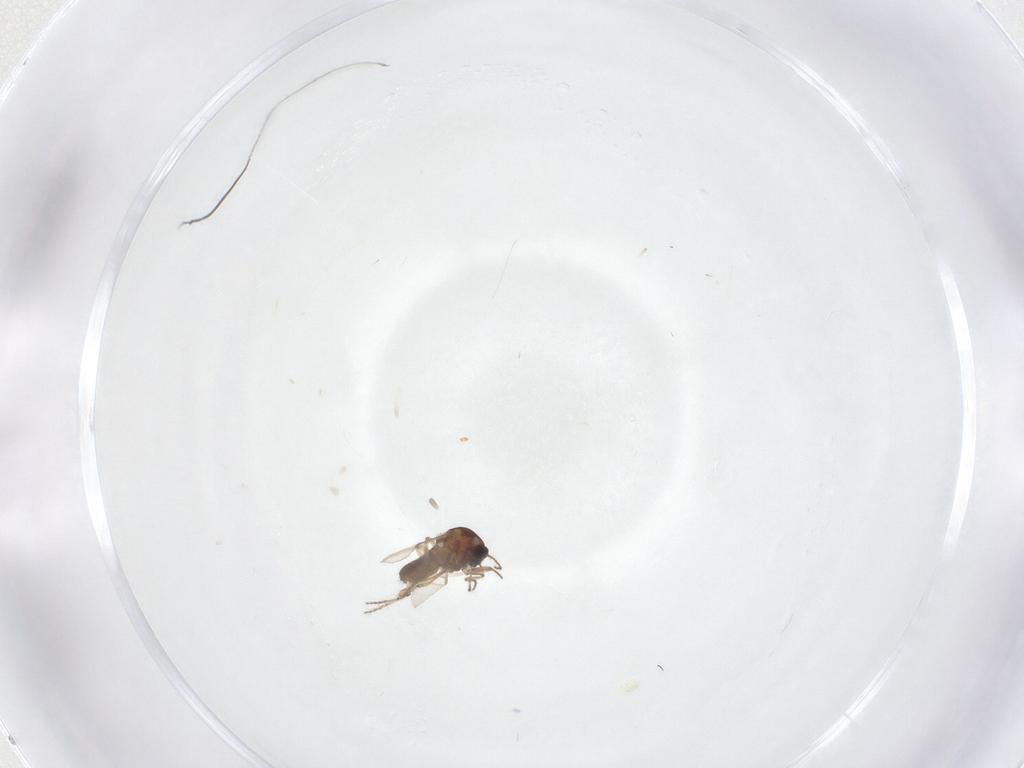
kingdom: Animalia
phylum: Arthropoda
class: Insecta
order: Diptera
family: Ceratopogonidae
